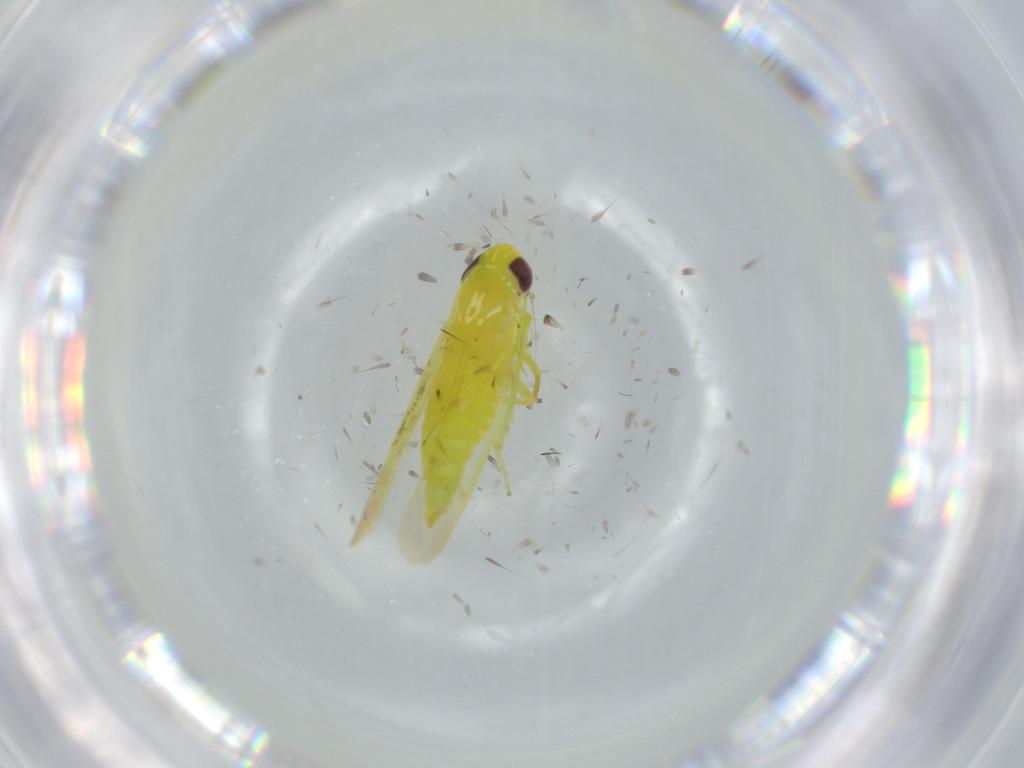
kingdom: Animalia
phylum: Arthropoda
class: Insecta
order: Hemiptera
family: Cicadellidae
